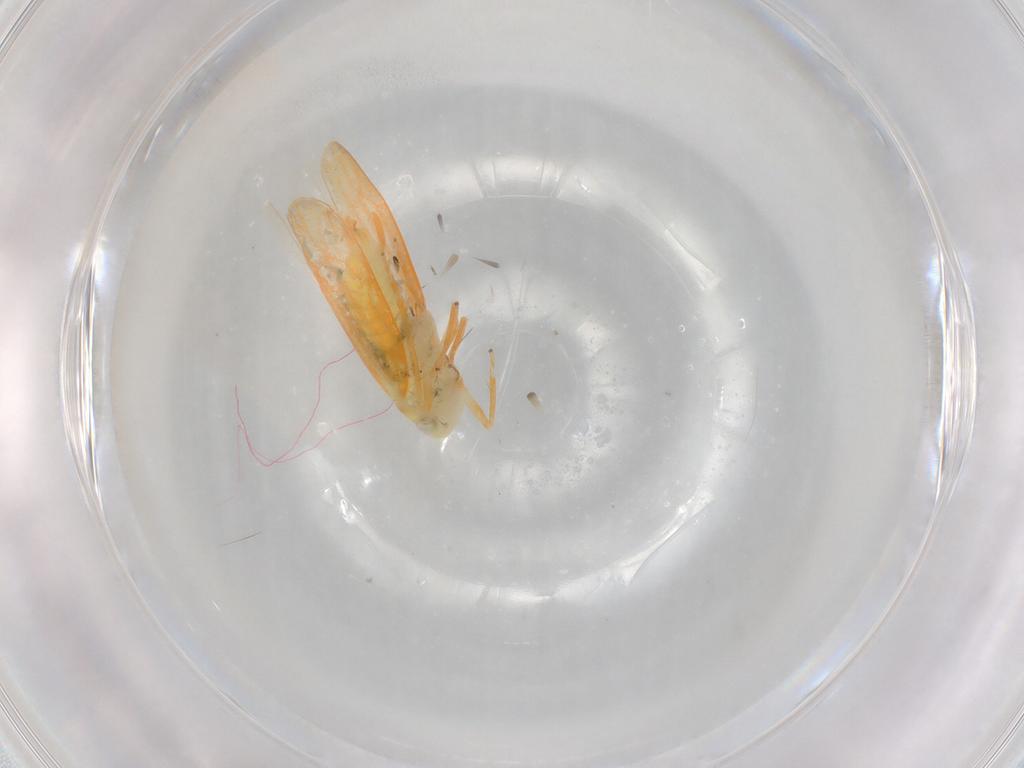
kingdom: Animalia
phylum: Arthropoda
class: Insecta
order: Hemiptera
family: Cicadellidae
